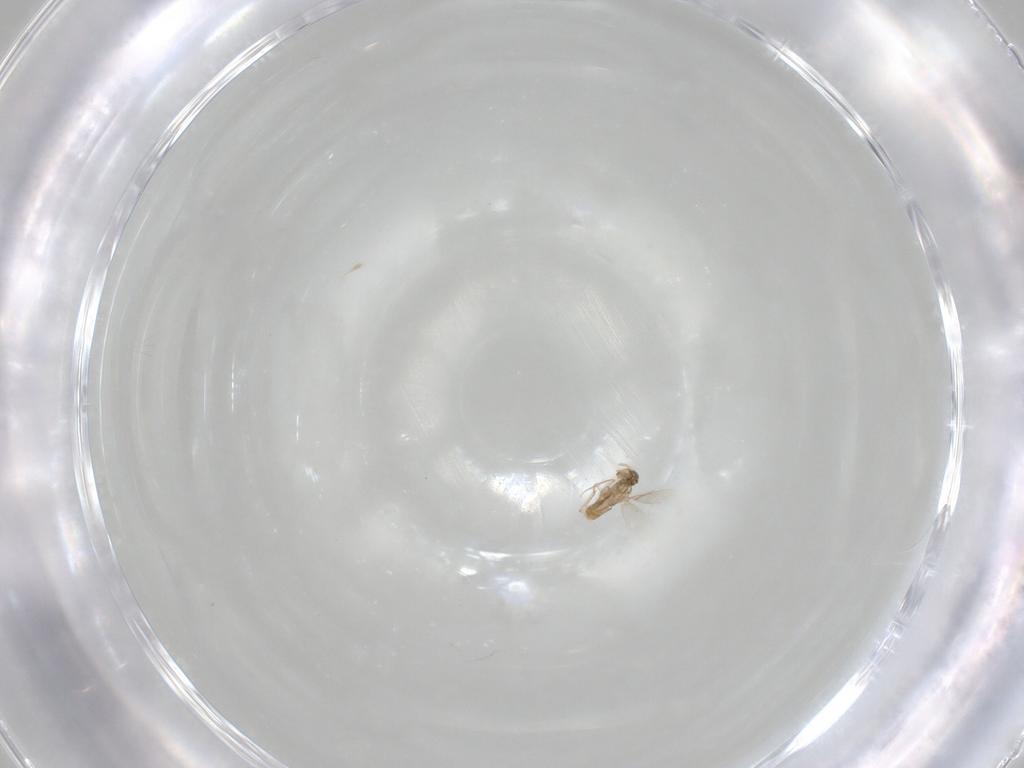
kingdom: Animalia
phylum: Arthropoda
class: Insecta
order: Hymenoptera
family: Aphelinidae
